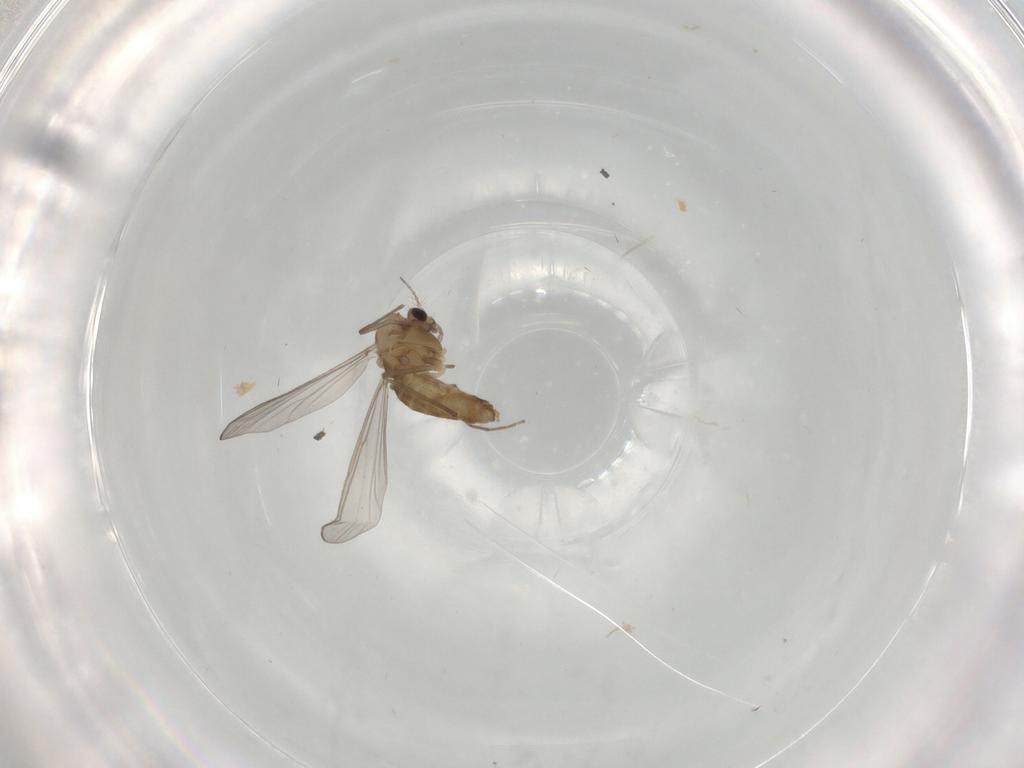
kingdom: Animalia
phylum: Arthropoda
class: Insecta
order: Diptera
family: Chironomidae
